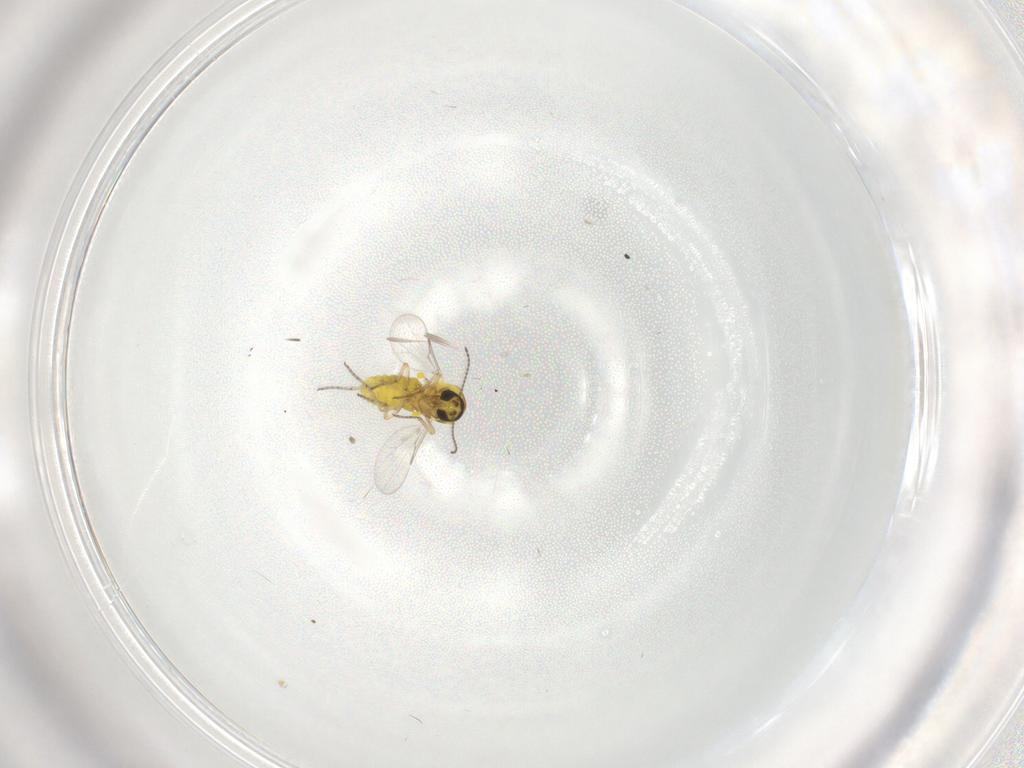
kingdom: Animalia
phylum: Arthropoda
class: Insecta
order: Diptera
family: Ceratopogonidae
